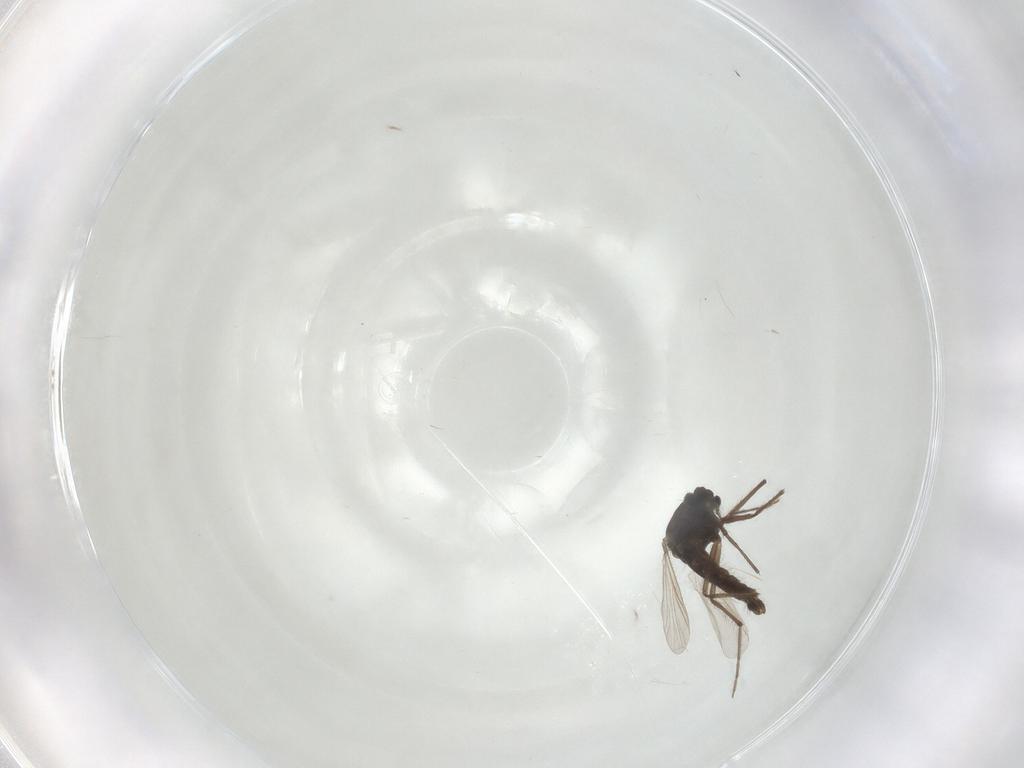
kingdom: Animalia
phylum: Arthropoda
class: Insecta
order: Diptera
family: Chironomidae
